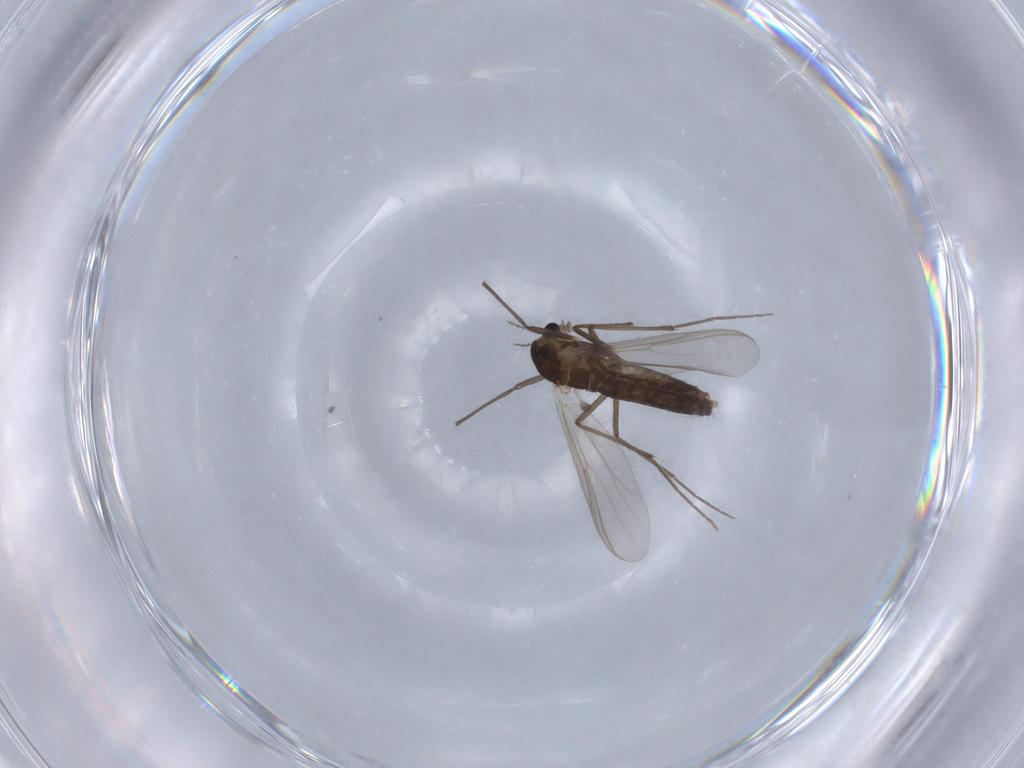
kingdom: Animalia
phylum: Arthropoda
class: Insecta
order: Diptera
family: Chironomidae
